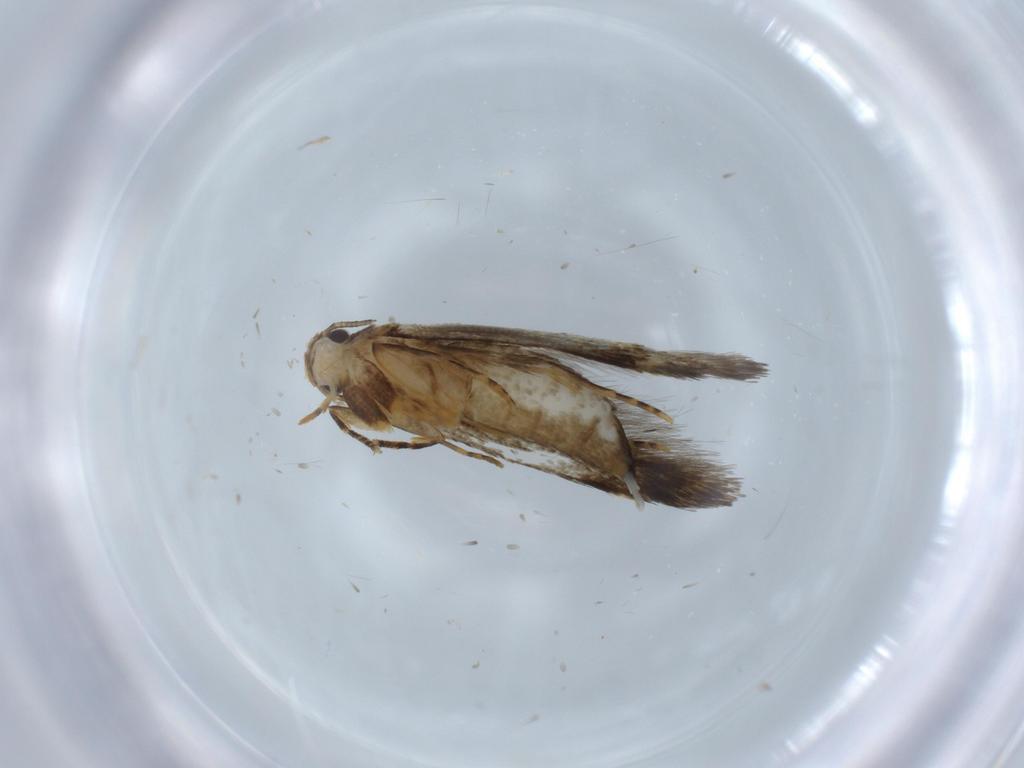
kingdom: Animalia
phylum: Arthropoda
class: Insecta
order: Lepidoptera
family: Tineidae
